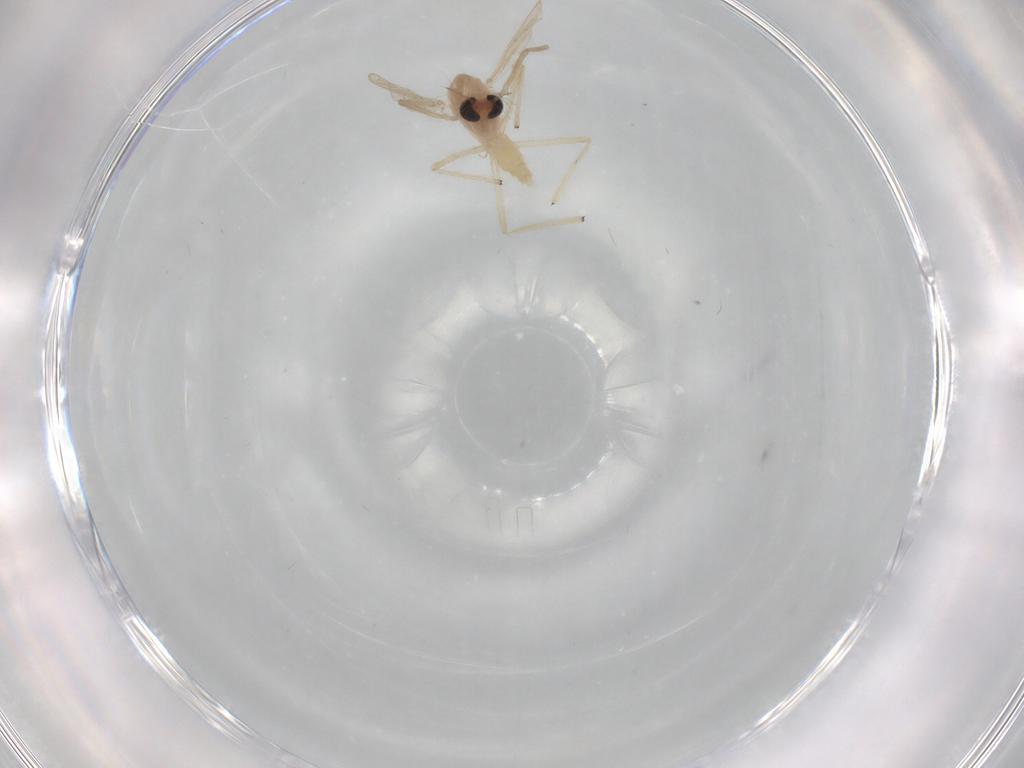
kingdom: Animalia
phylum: Arthropoda
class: Insecta
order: Diptera
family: Chironomidae
